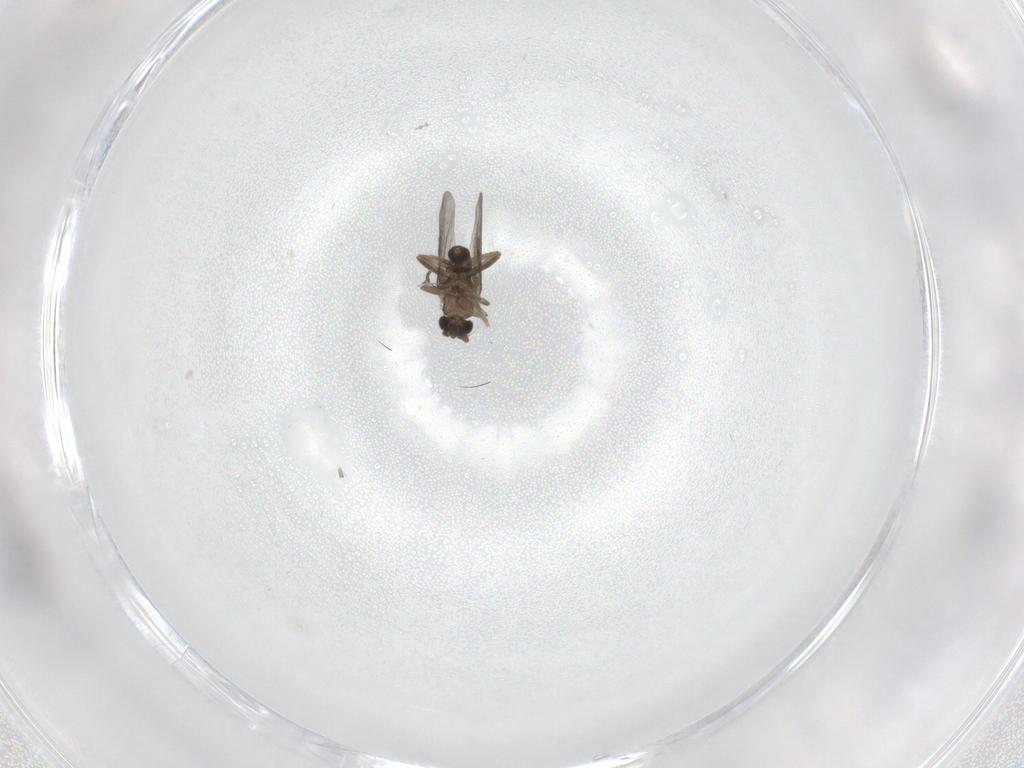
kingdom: Animalia
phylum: Arthropoda
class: Insecta
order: Diptera
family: Cecidomyiidae
